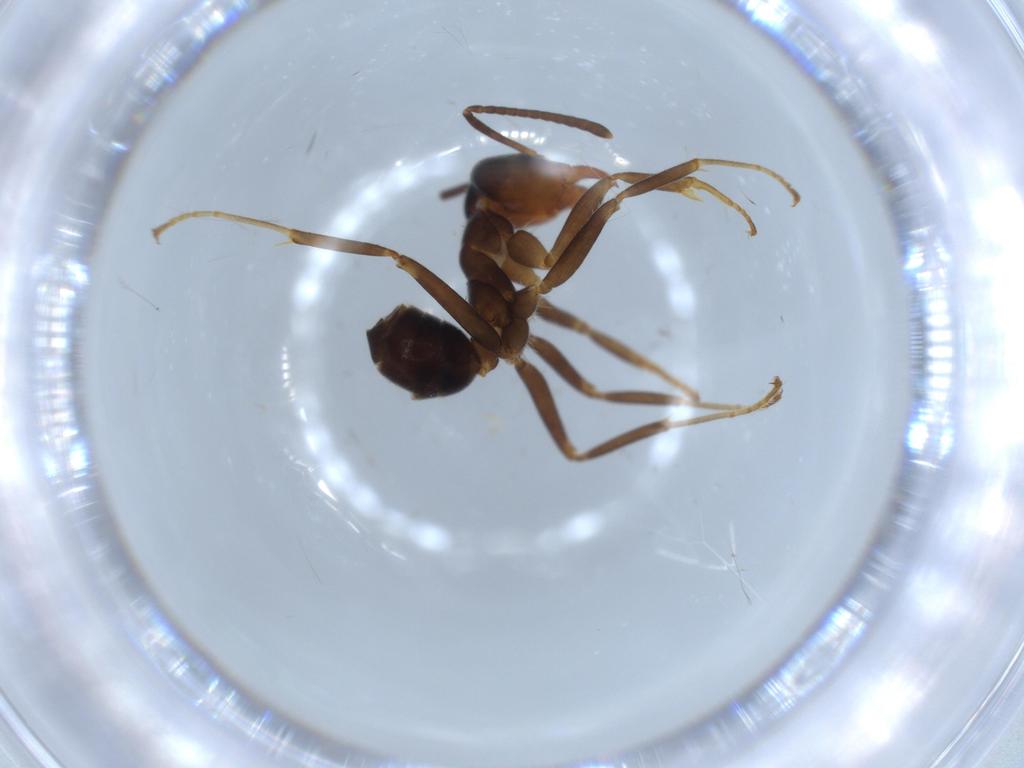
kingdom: Animalia
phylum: Arthropoda
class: Insecta
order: Hymenoptera
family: Formicidae
